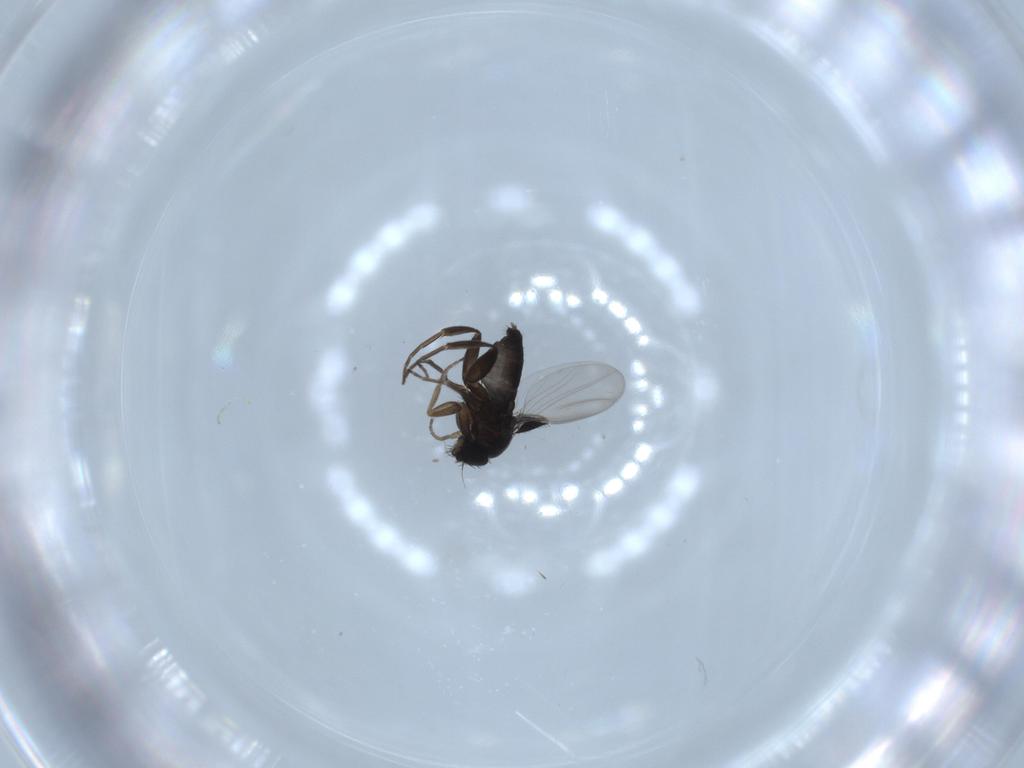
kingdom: Animalia
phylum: Arthropoda
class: Insecta
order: Diptera
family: Phoridae
